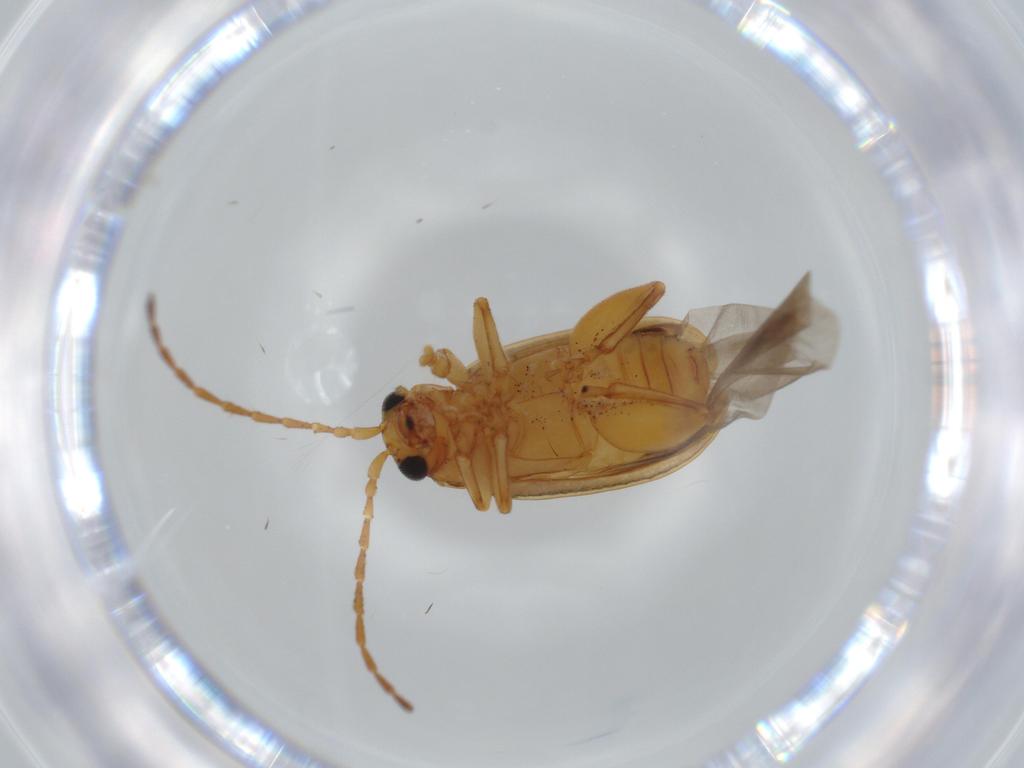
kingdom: Animalia
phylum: Arthropoda
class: Insecta
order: Coleoptera
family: Chrysomelidae
